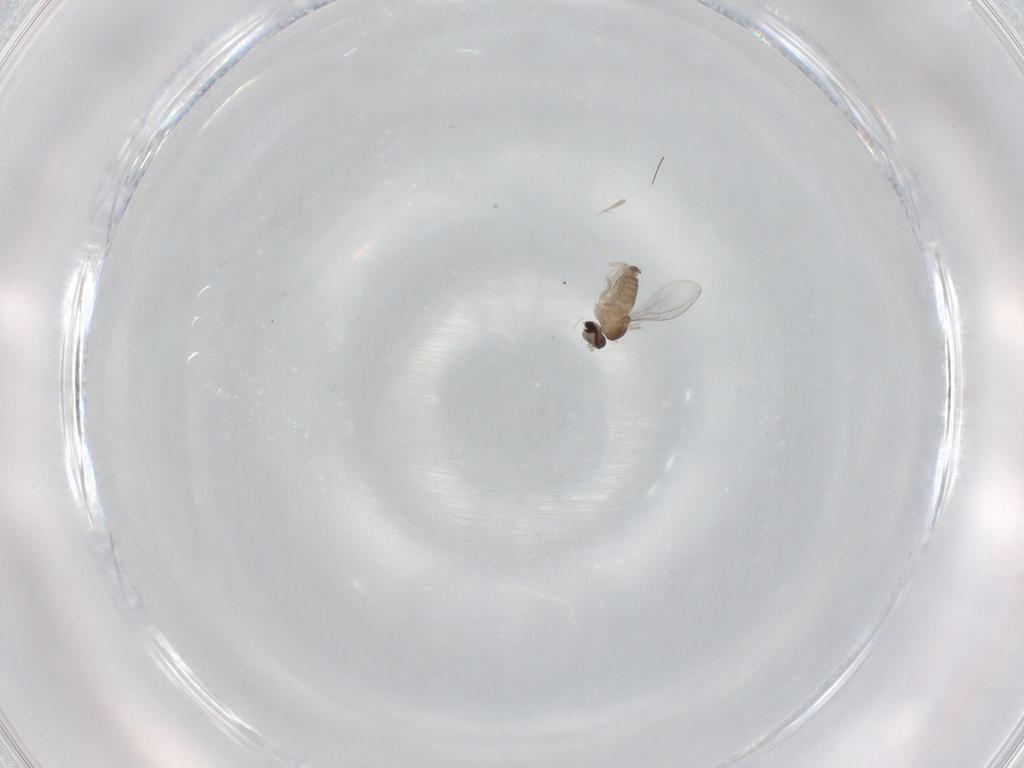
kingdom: Animalia
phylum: Arthropoda
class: Insecta
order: Diptera
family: Cecidomyiidae
